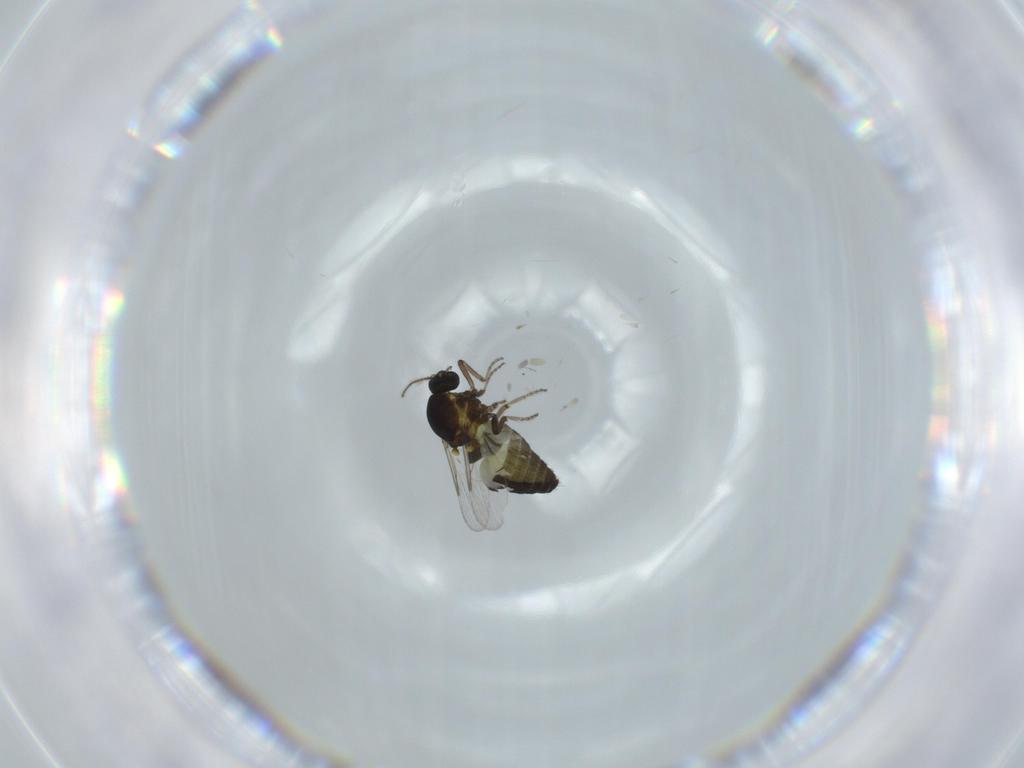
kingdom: Animalia
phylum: Arthropoda
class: Insecta
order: Diptera
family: Ceratopogonidae
